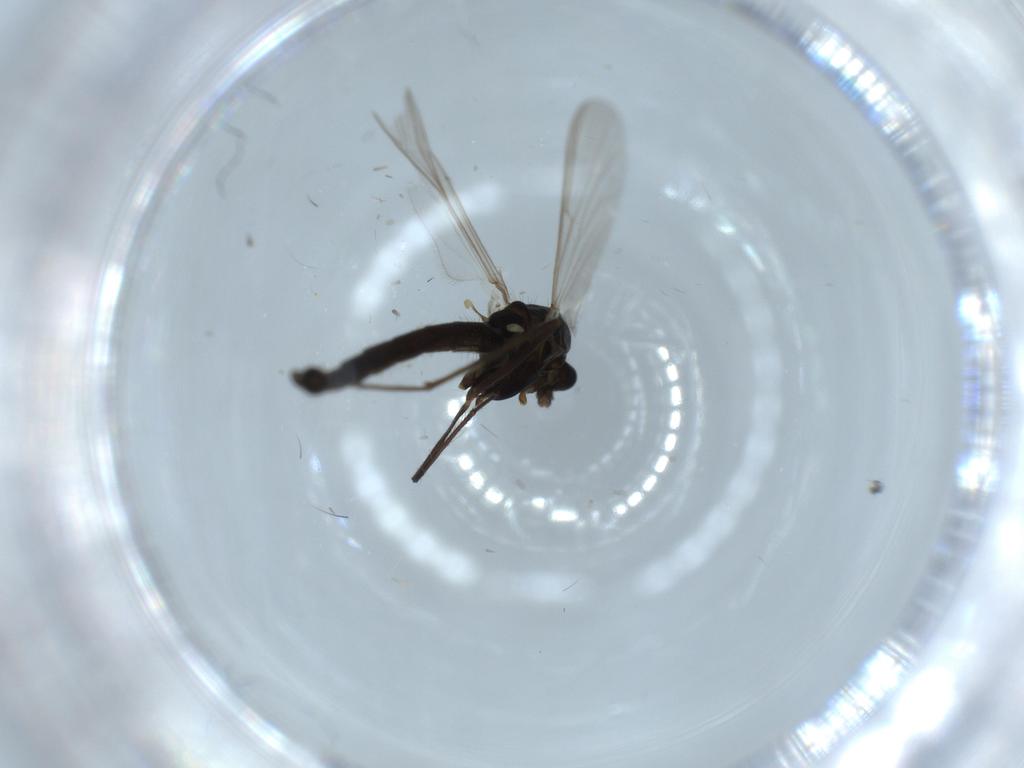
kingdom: Animalia
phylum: Arthropoda
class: Insecta
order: Diptera
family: Chironomidae
